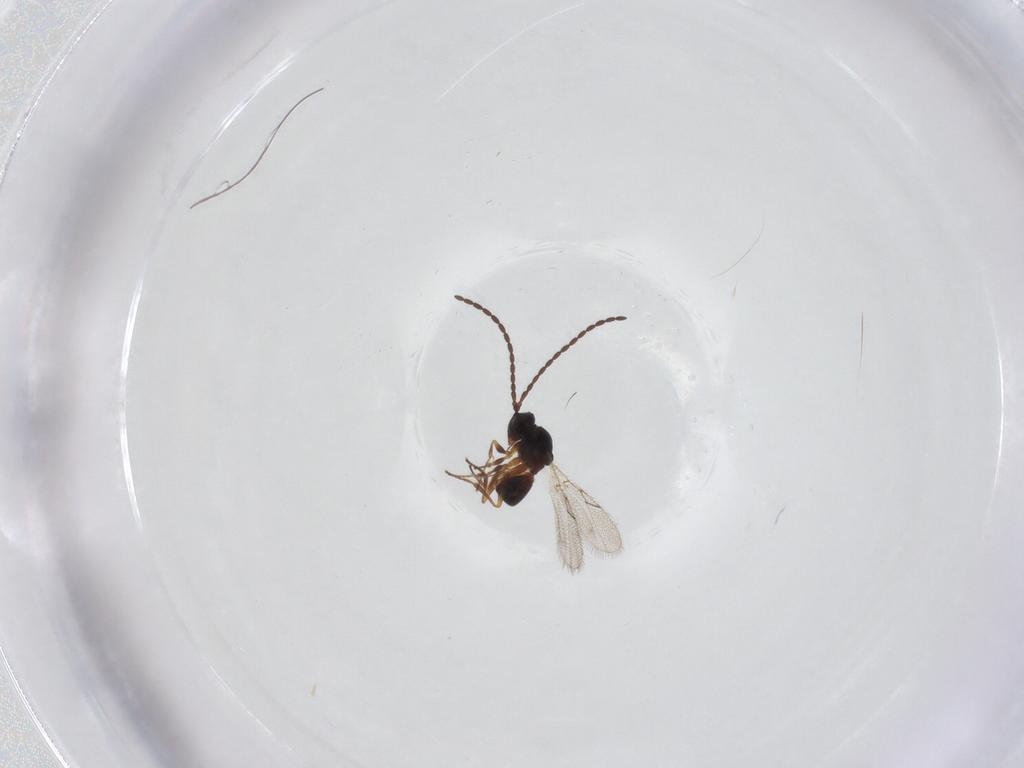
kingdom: Animalia
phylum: Arthropoda
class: Insecta
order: Hymenoptera
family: Figitidae
